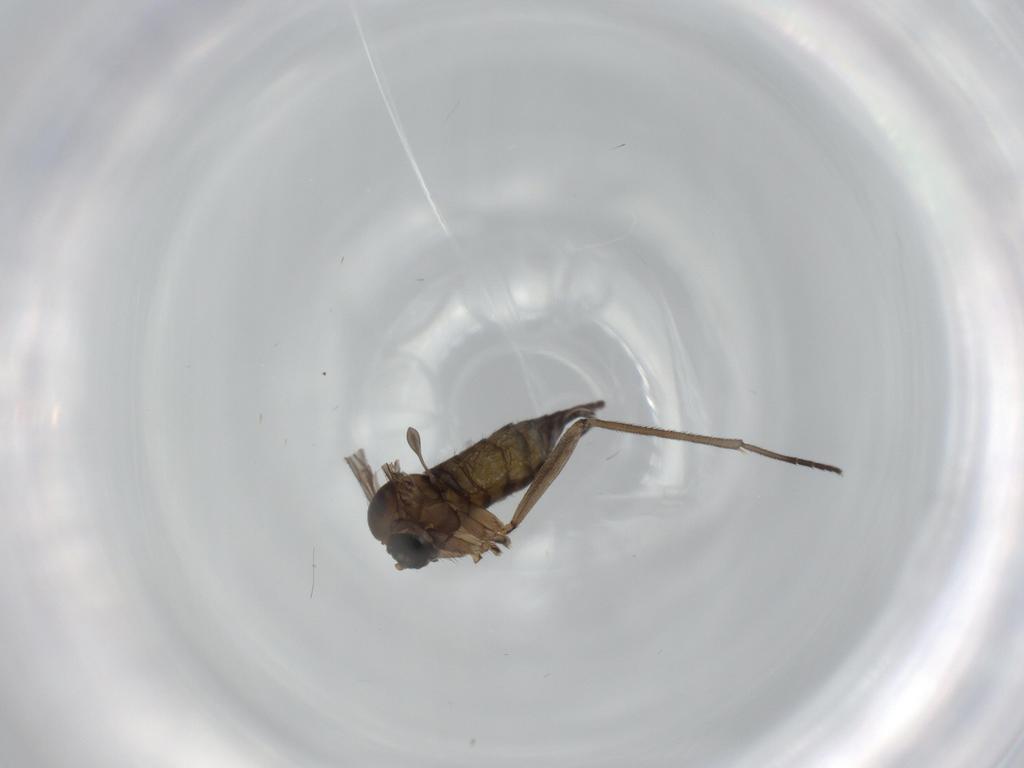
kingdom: Animalia
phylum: Arthropoda
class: Insecta
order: Diptera
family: Sciaridae
